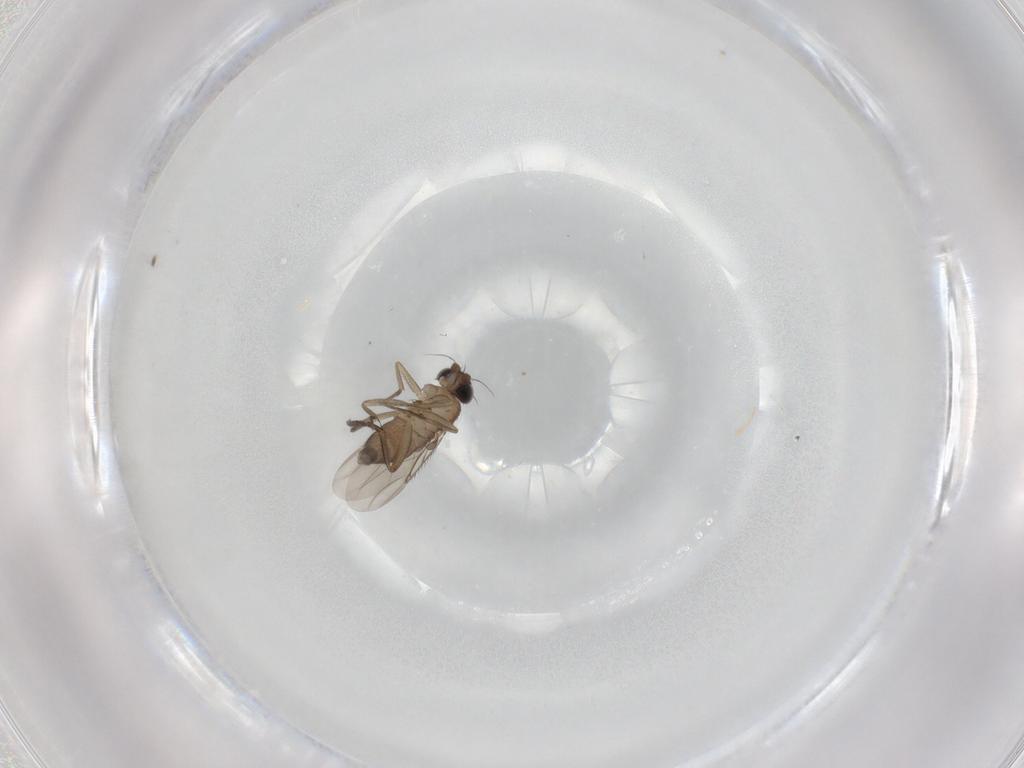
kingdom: Animalia
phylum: Arthropoda
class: Insecta
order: Diptera
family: Phoridae
